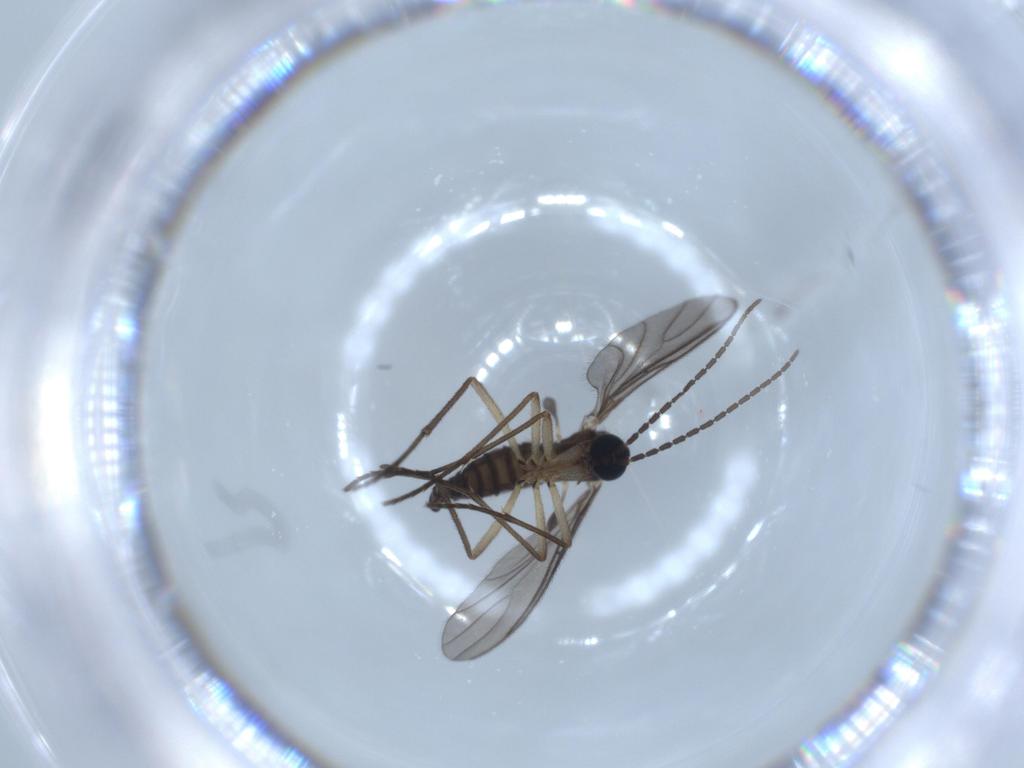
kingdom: Animalia
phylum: Arthropoda
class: Insecta
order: Diptera
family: Sciaridae
